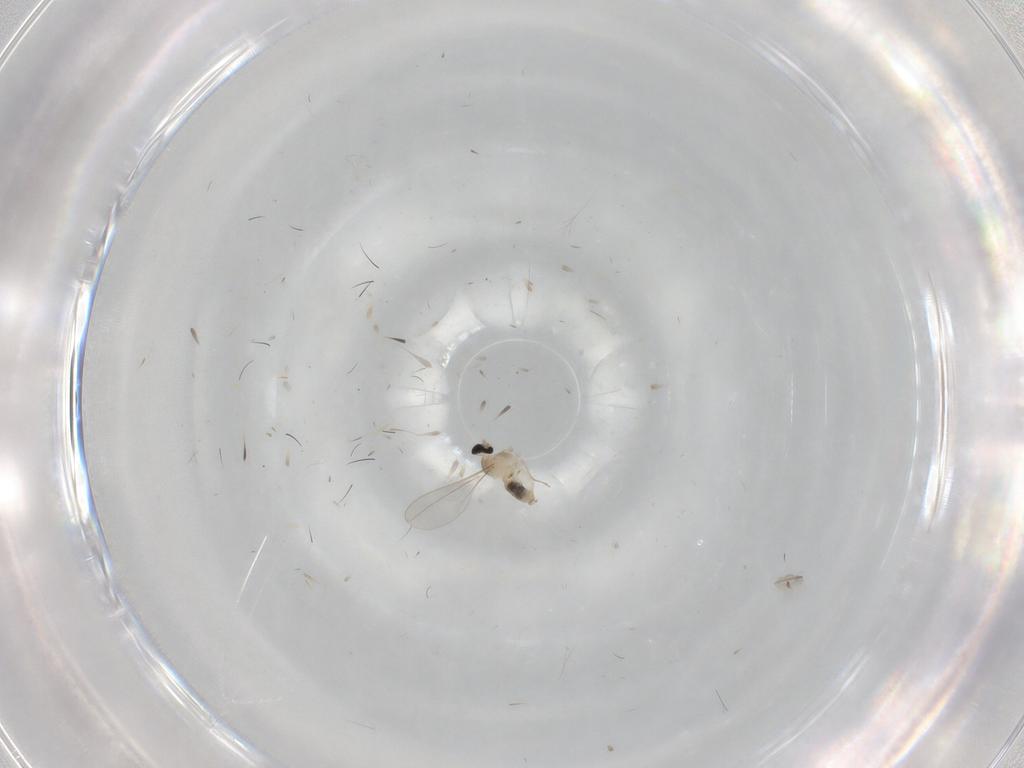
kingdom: Animalia
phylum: Arthropoda
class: Insecta
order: Diptera
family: Cecidomyiidae
